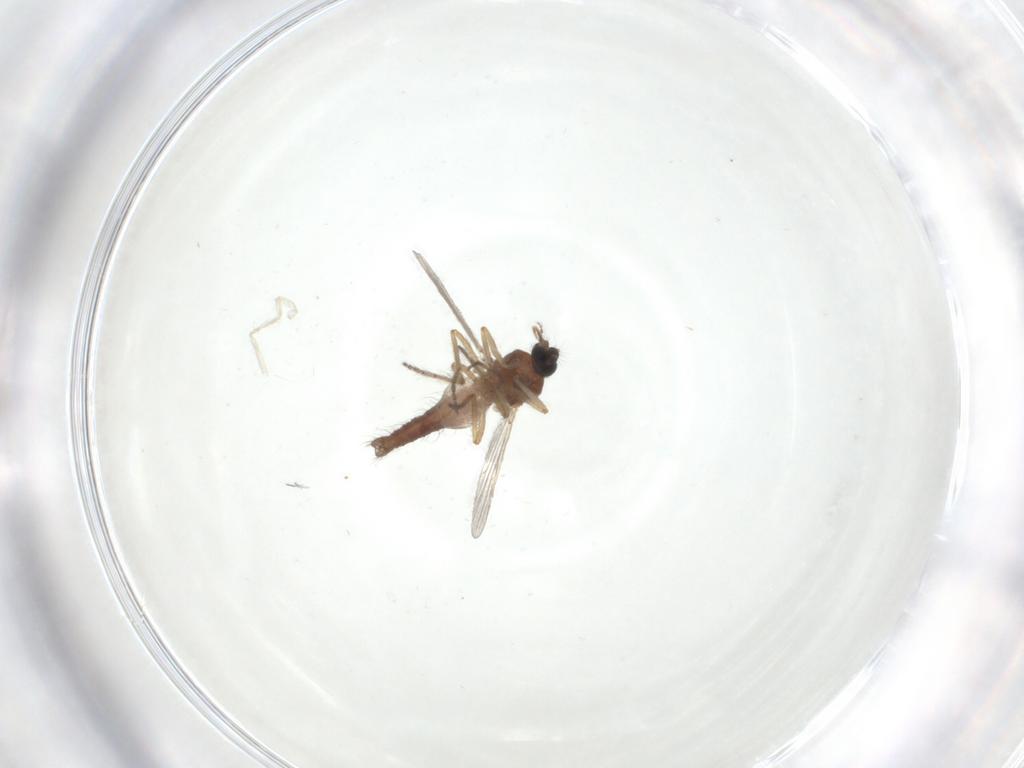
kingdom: Animalia
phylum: Arthropoda
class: Insecta
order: Diptera
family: Ceratopogonidae
